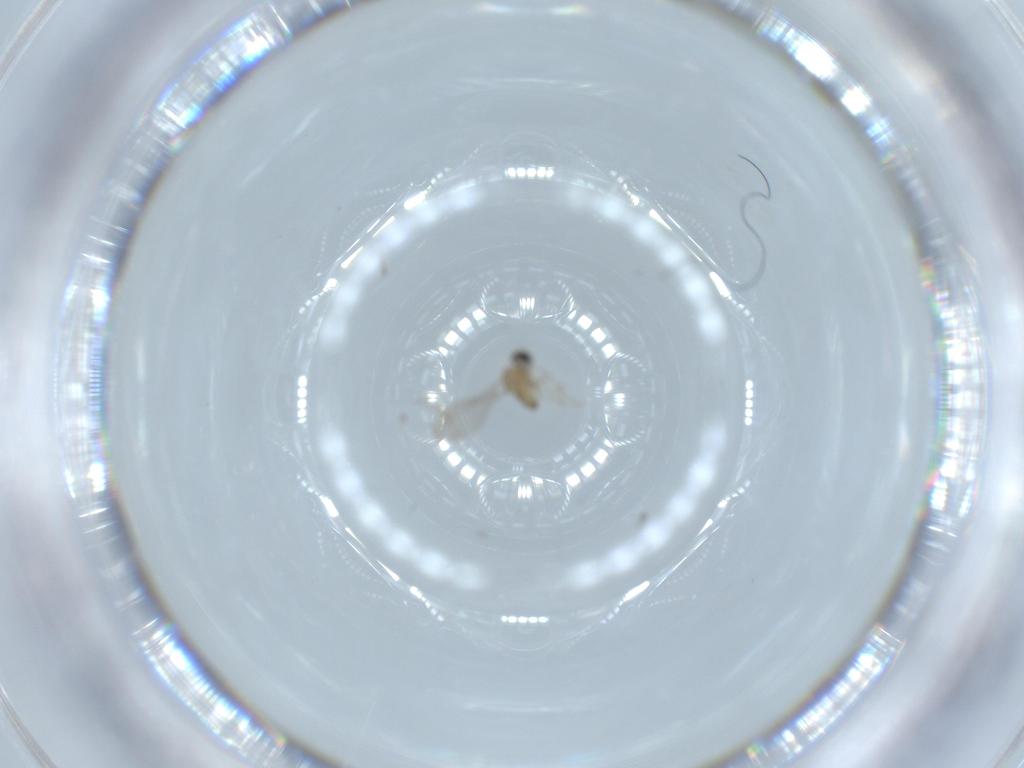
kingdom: Animalia
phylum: Arthropoda
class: Insecta
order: Diptera
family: Cecidomyiidae
